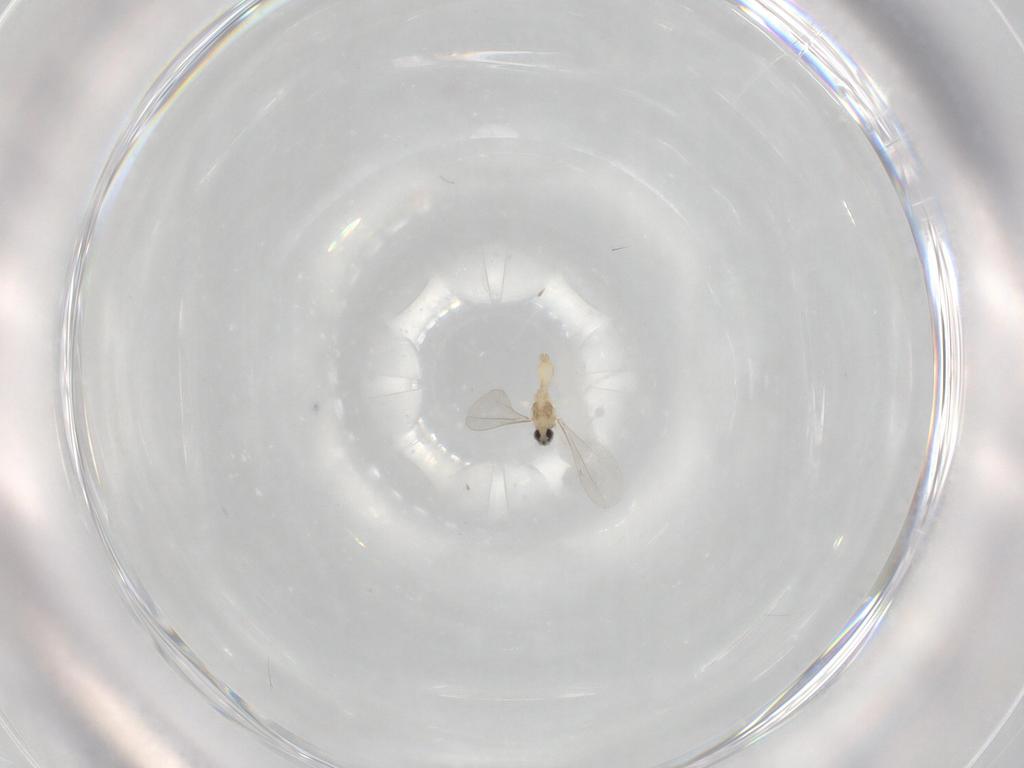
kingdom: Animalia
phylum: Arthropoda
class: Insecta
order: Diptera
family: Cecidomyiidae
